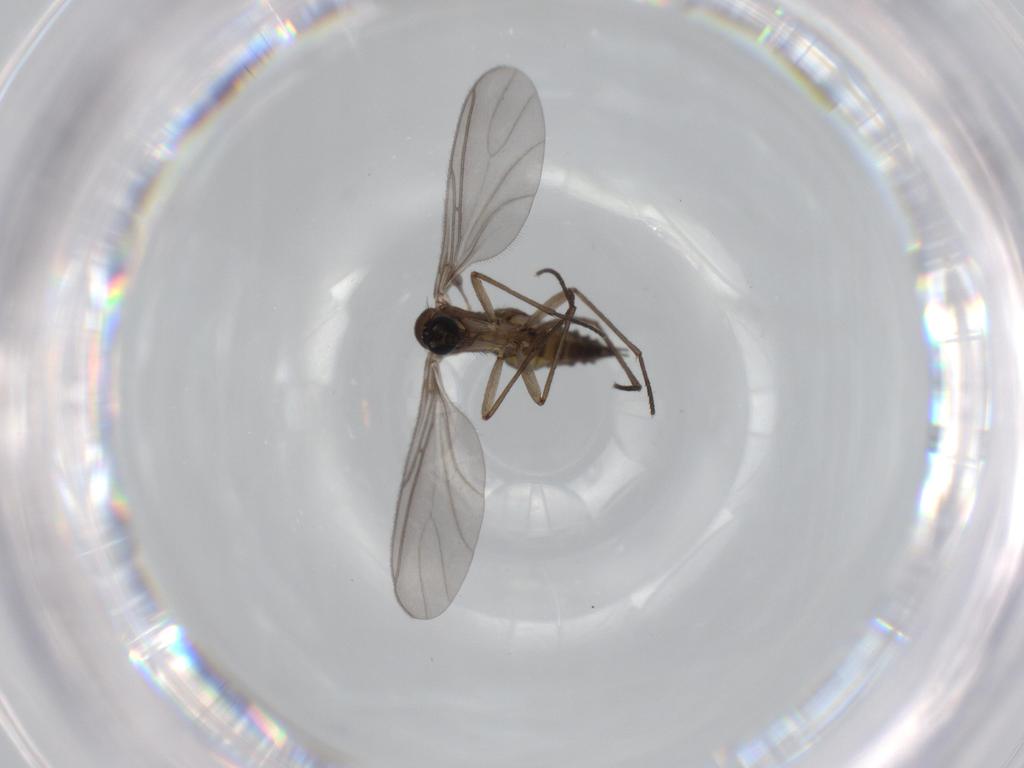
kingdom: Animalia
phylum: Arthropoda
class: Insecta
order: Diptera
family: Sciaridae
